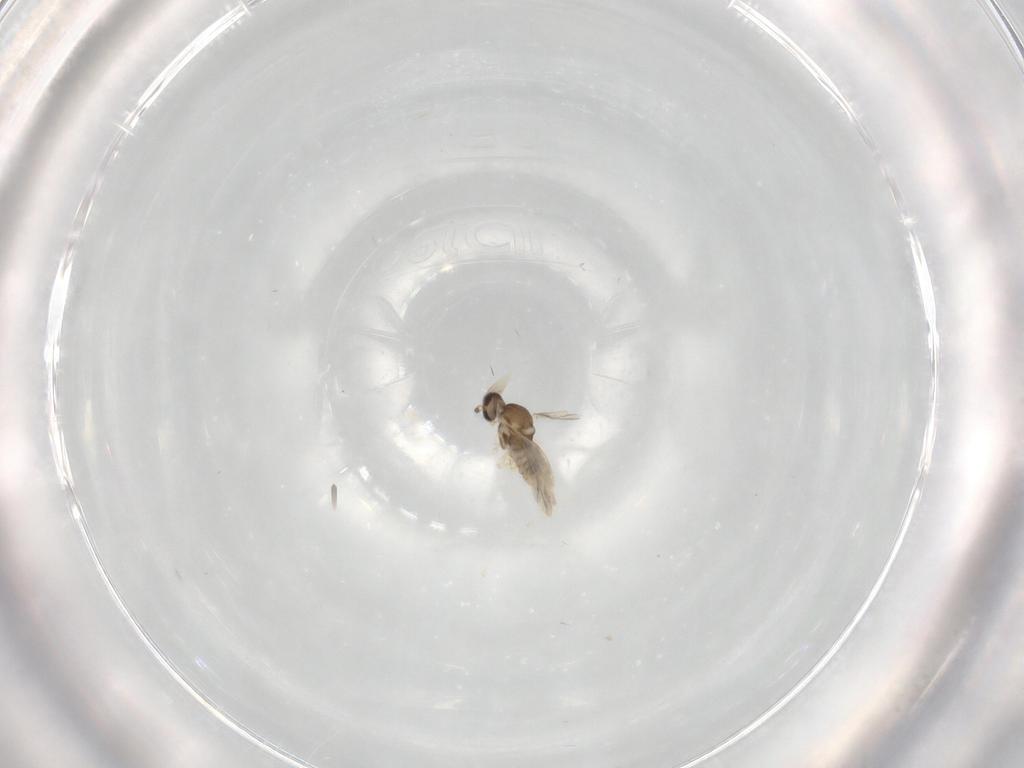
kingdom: Animalia
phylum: Arthropoda
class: Insecta
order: Diptera
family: Cecidomyiidae
